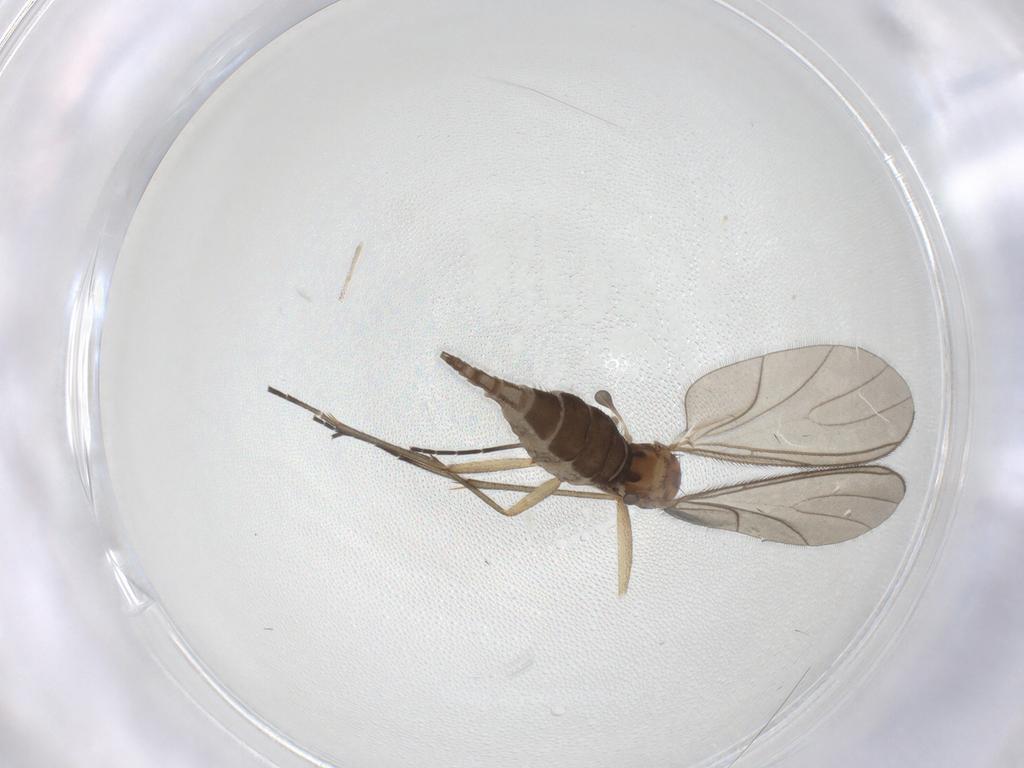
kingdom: Animalia
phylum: Arthropoda
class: Insecta
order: Diptera
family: Sciaridae
